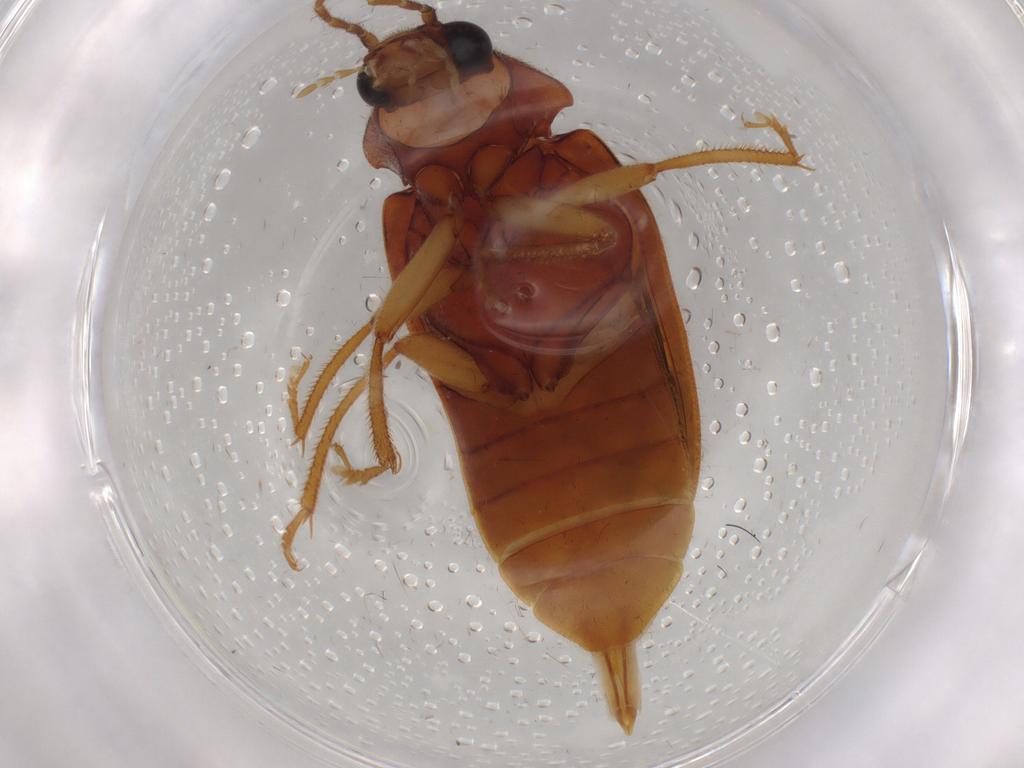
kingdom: Animalia
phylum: Arthropoda
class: Insecta
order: Coleoptera
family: Ptilodactylidae
